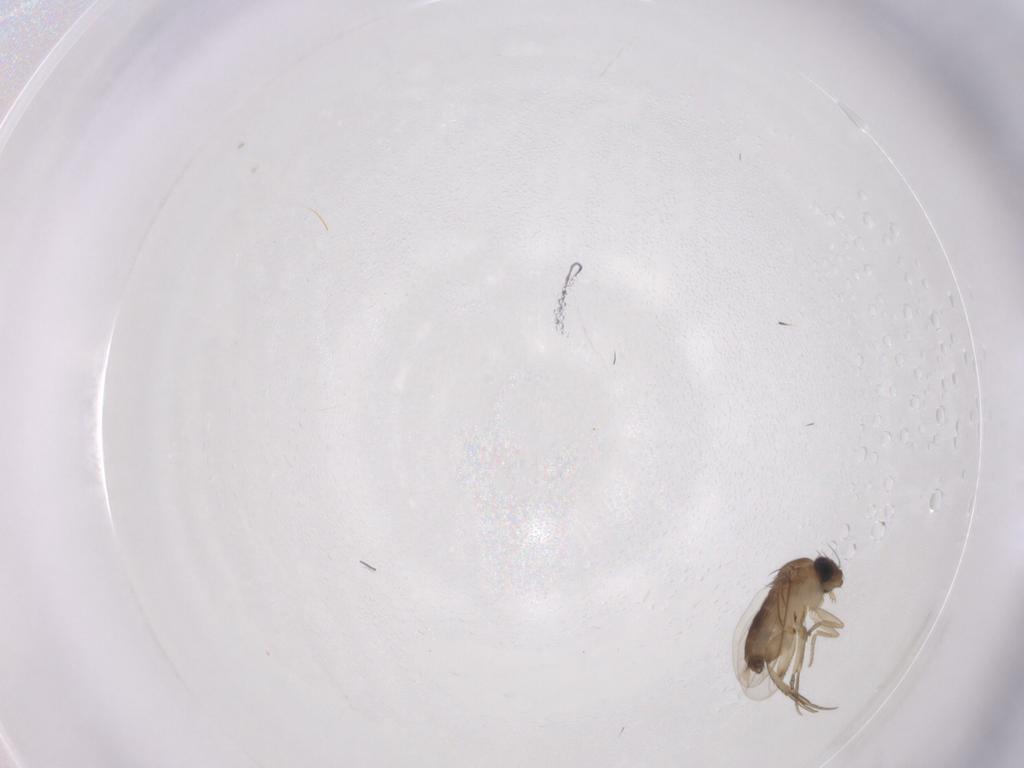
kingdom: Animalia
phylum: Arthropoda
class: Insecta
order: Diptera
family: Phoridae
